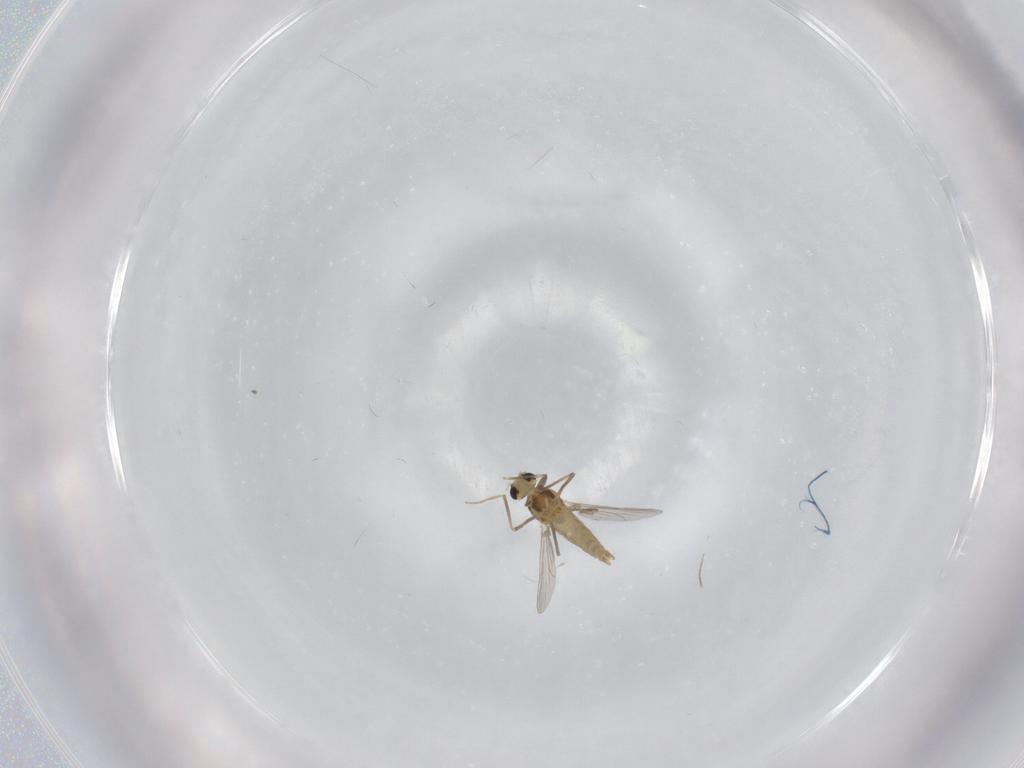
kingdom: Animalia
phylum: Arthropoda
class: Insecta
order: Diptera
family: Chironomidae
